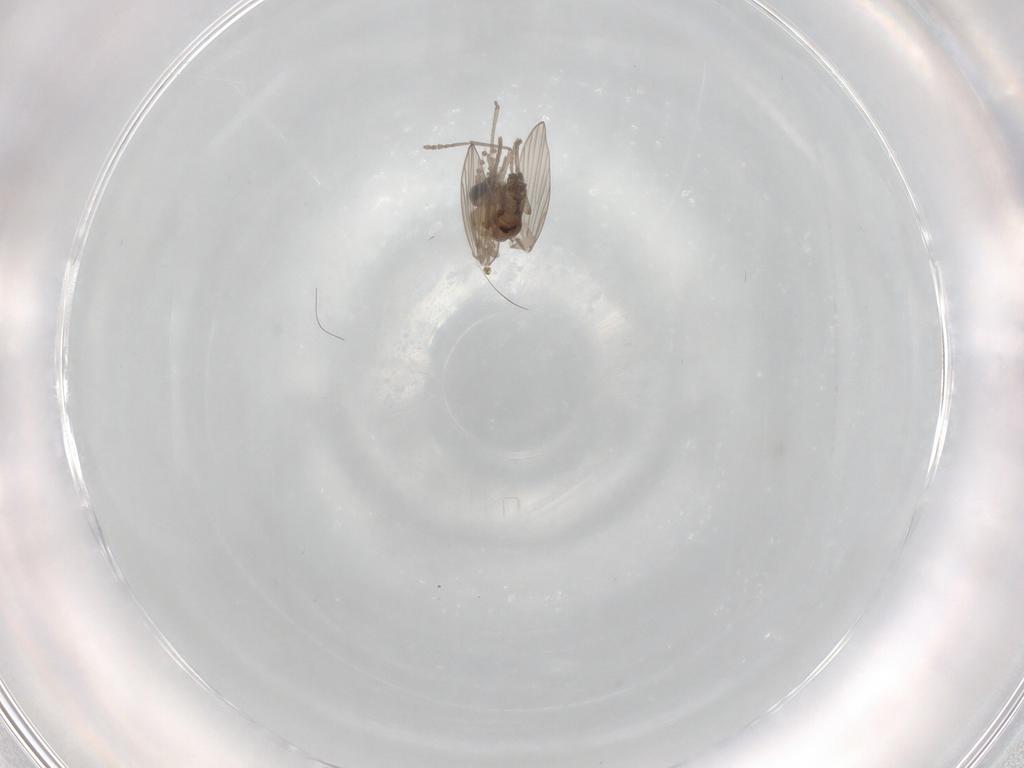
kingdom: Animalia
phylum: Arthropoda
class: Insecta
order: Diptera
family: Psychodidae
